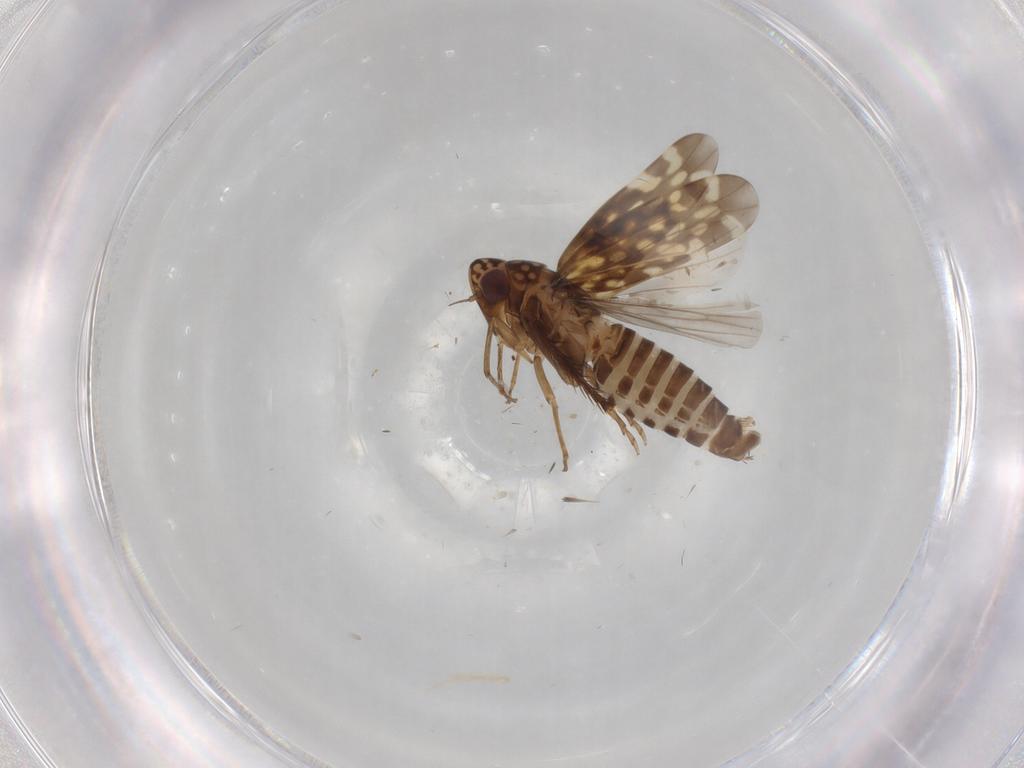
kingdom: Animalia
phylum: Arthropoda
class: Insecta
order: Hemiptera
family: Cicadellidae
